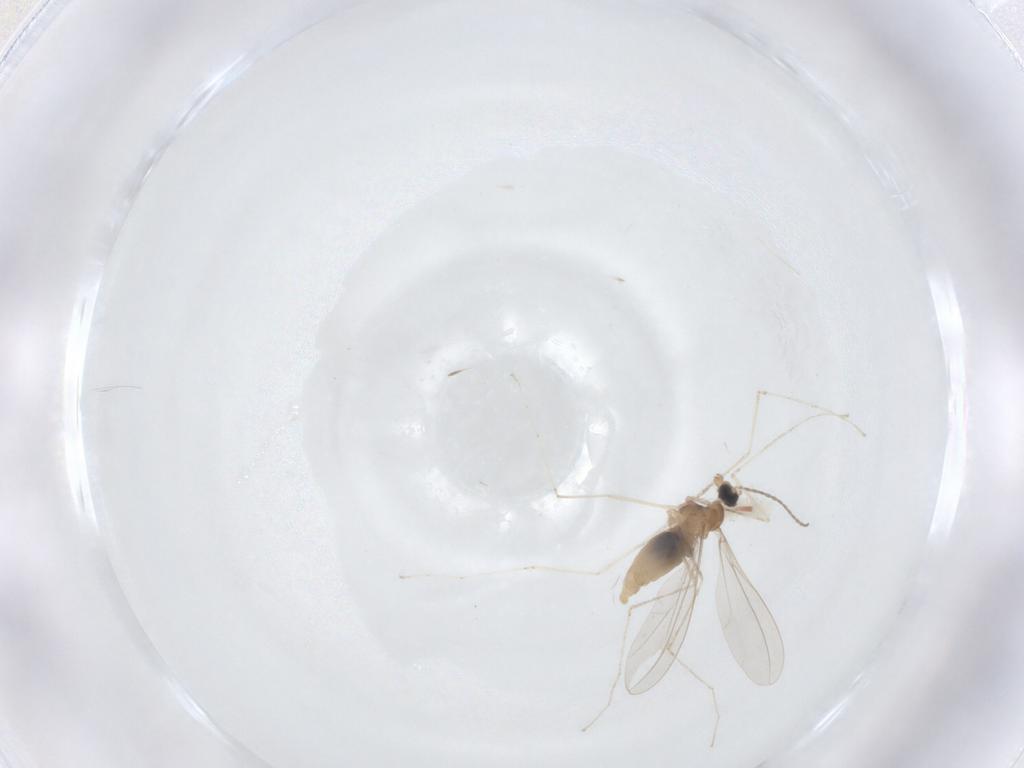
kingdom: Animalia
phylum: Arthropoda
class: Insecta
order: Diptera
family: Cecidomyiidae
